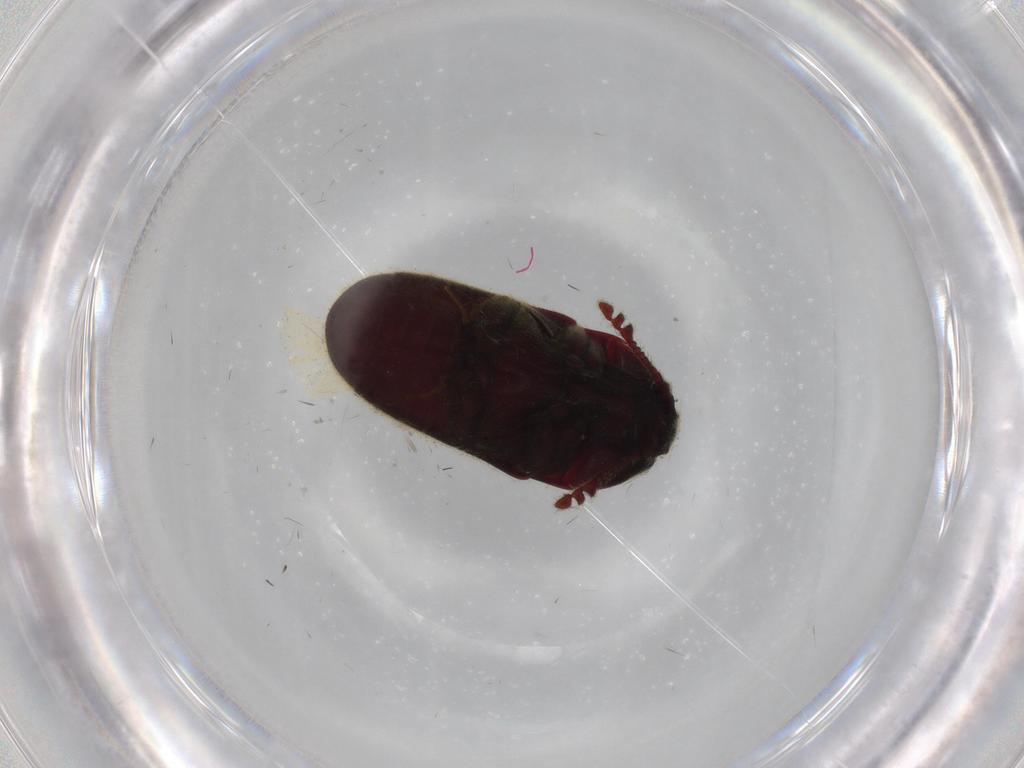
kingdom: Animalia
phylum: Arthropoda
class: Insecta
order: Coleoptera
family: Throscidae
